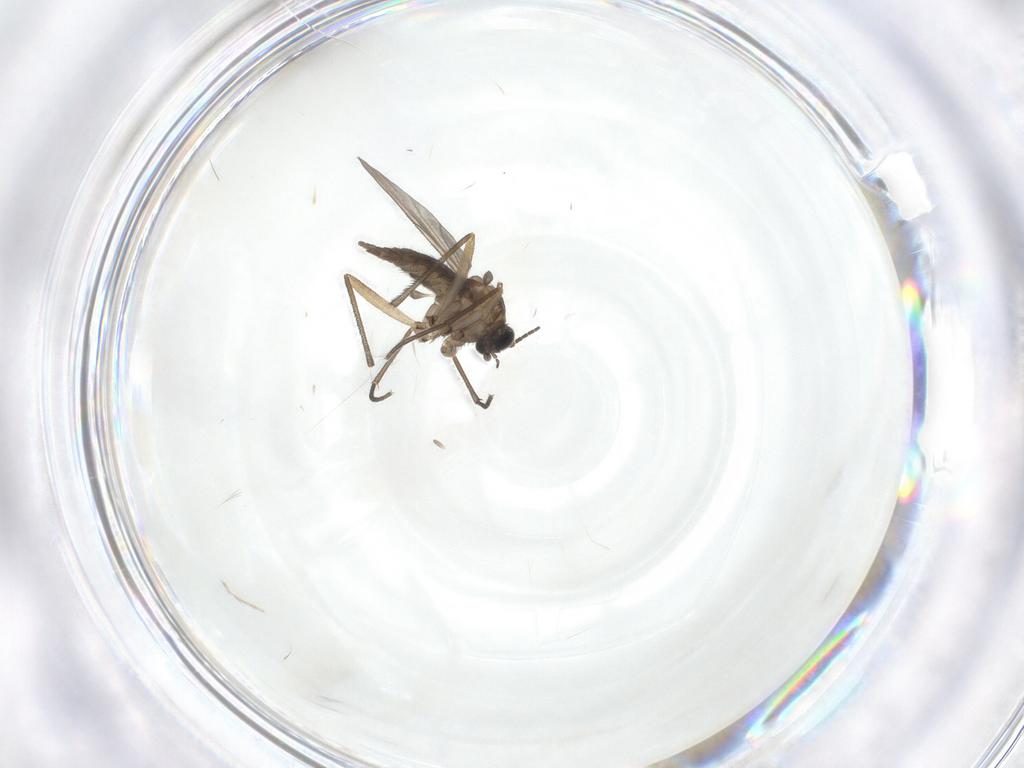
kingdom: Animalia
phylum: Arthropoda
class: Insecta
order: Diptera
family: Sciaridae
